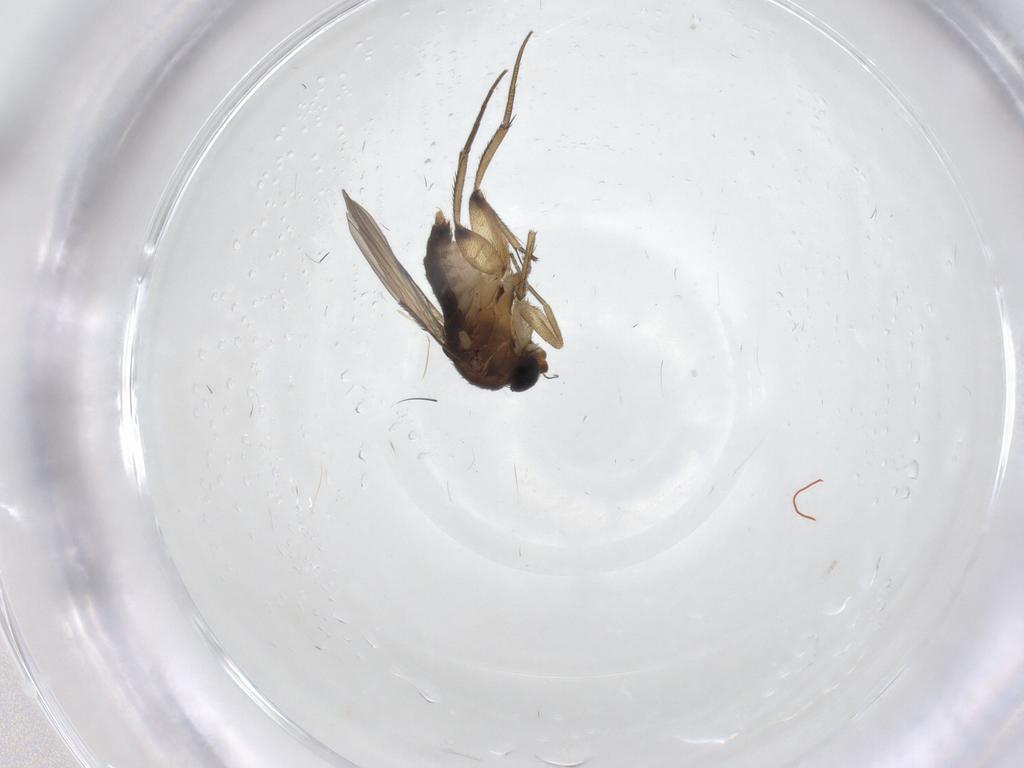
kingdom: Animalia
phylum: Arthropoda
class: Insecta
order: Diptera
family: Phoridae
